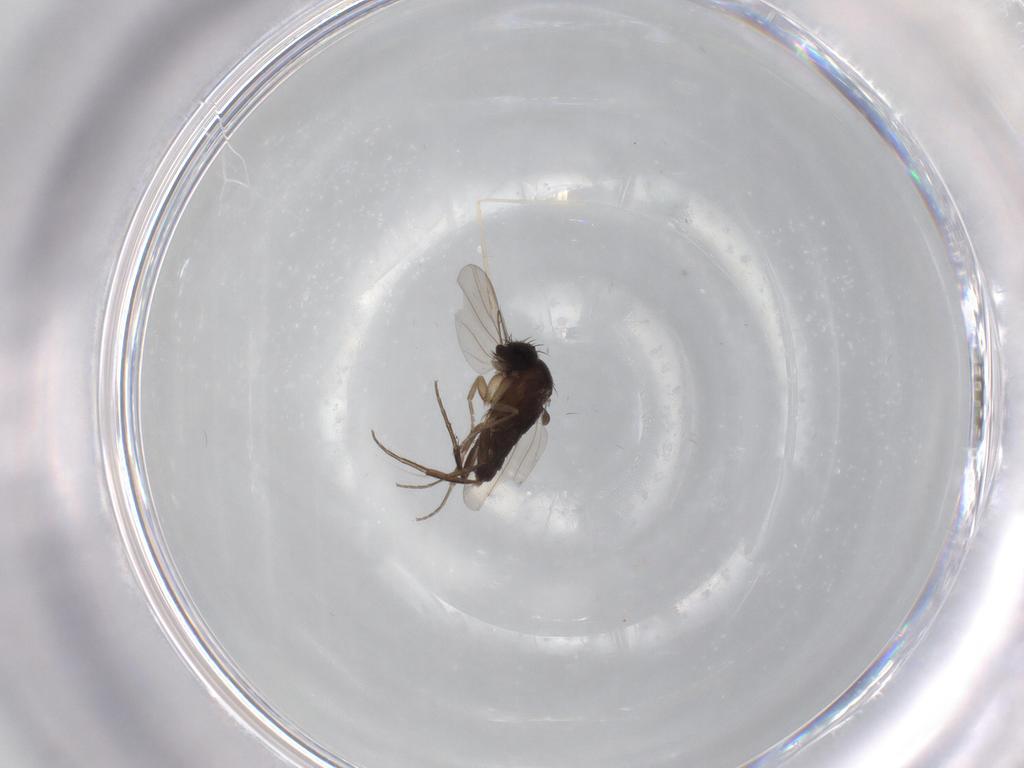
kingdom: Animalia
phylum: Arthropoda
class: Insecta
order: Diptera
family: Phoridae
